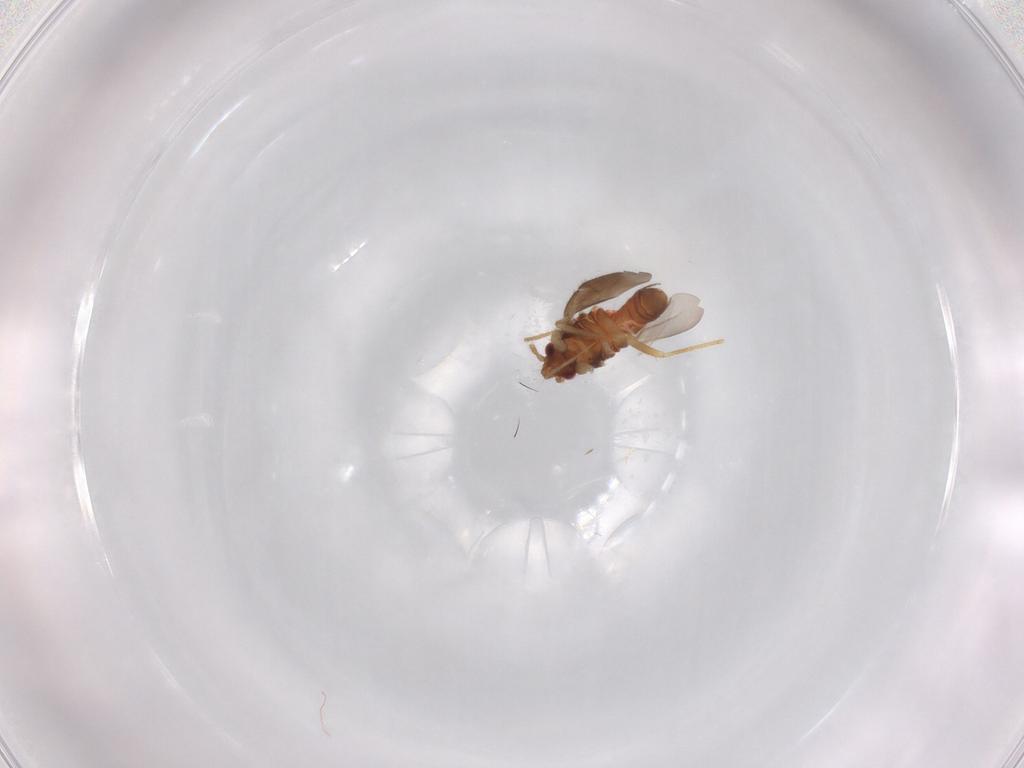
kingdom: Animalia
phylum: Arthropoda
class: Insecta
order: Hemiptera
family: Ceratocombidae
